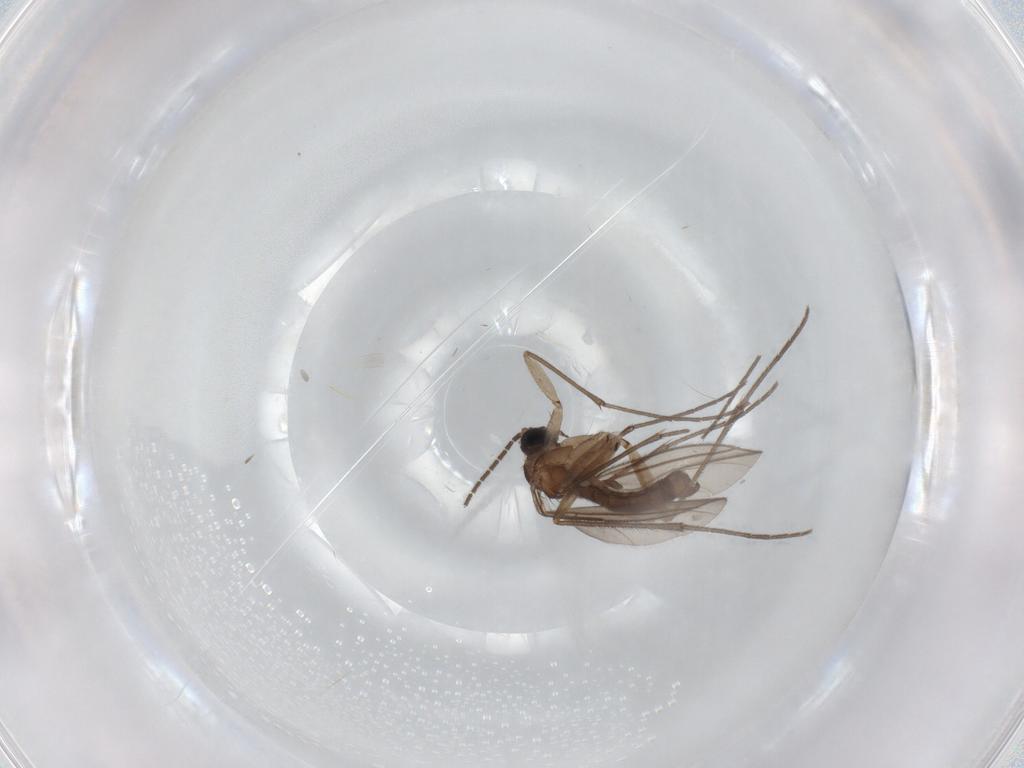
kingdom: Animalia
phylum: Arthropoda
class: Insecta
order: Diptera
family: Sciaridae
